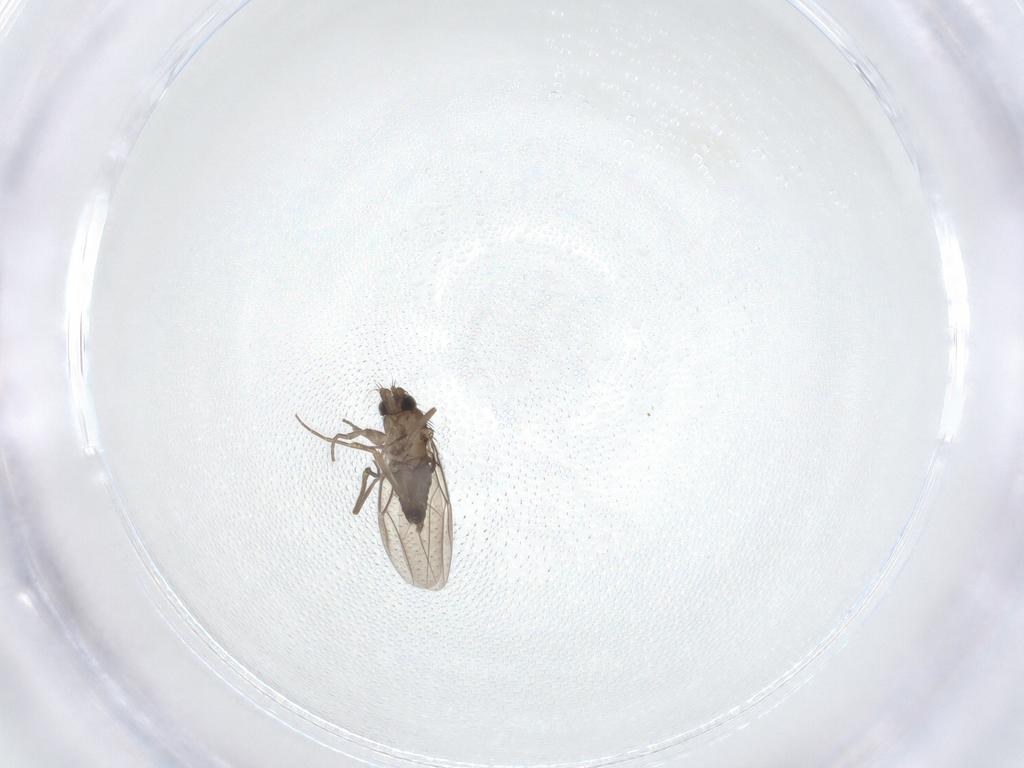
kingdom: Animalia
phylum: Arthropoda
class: Insecta
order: Diptera
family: Phoridae
